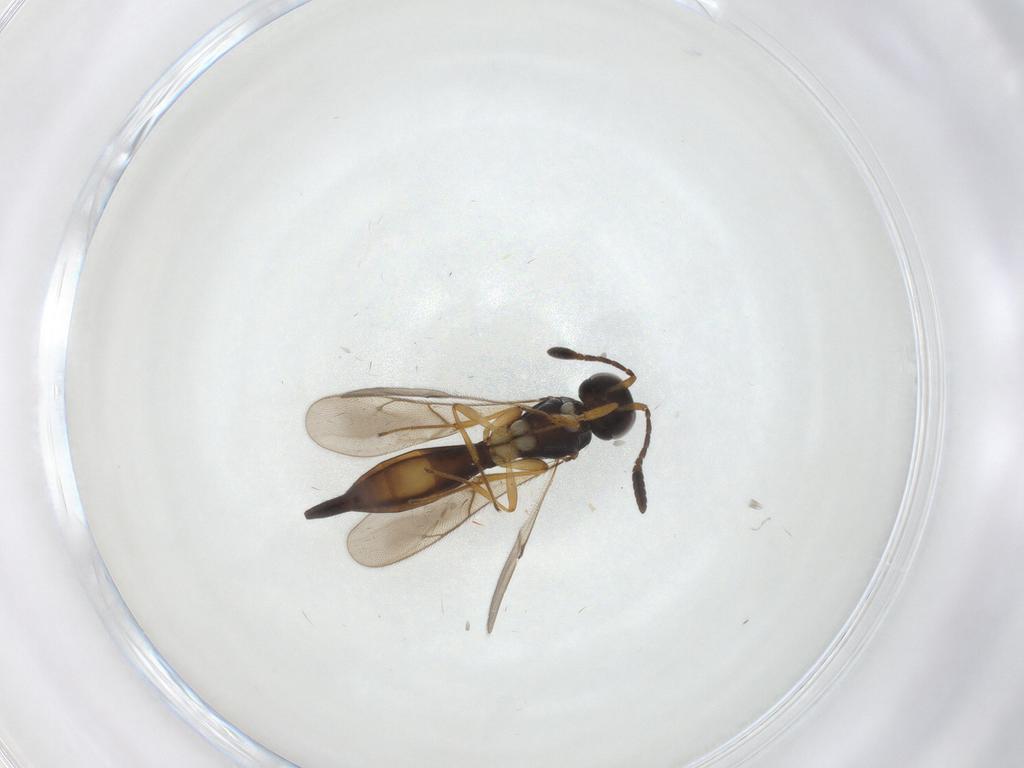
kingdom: Animalia
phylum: Arthropoda
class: Insecta
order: Hymenoptera
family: Scelionidae
